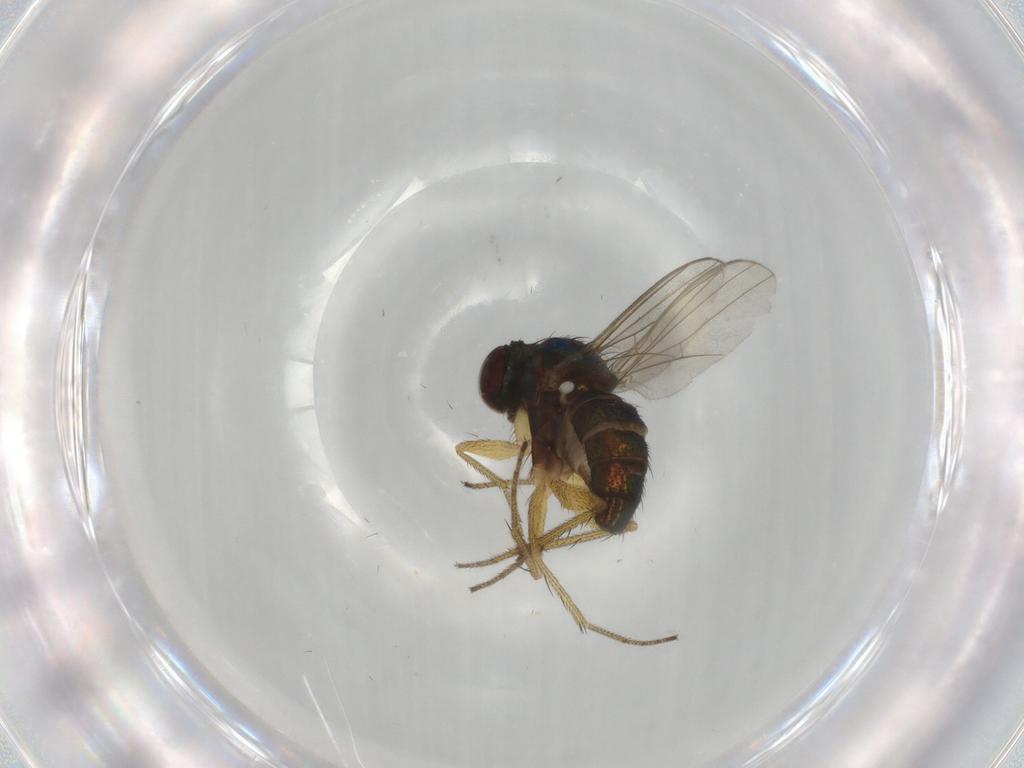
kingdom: Animalia
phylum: Arthropoda
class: Insecta
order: Diptera
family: Dolichopodidae
